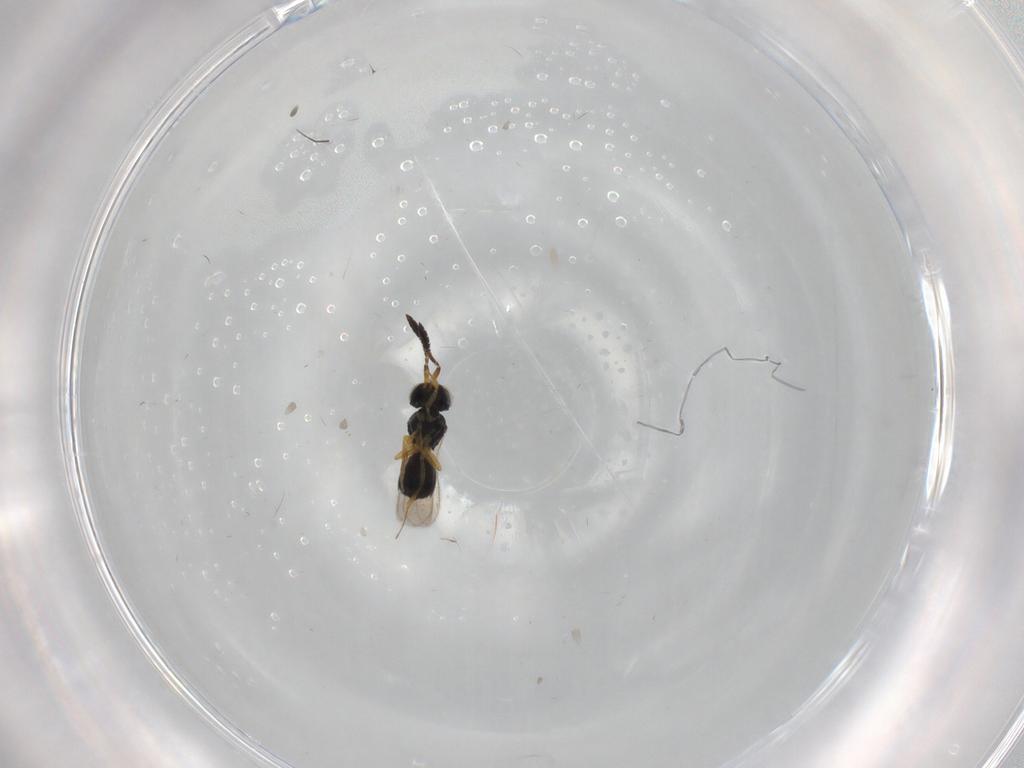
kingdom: Animalia
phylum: Arthropoda
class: Insecta
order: Hymenoptera
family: Scelionidae
